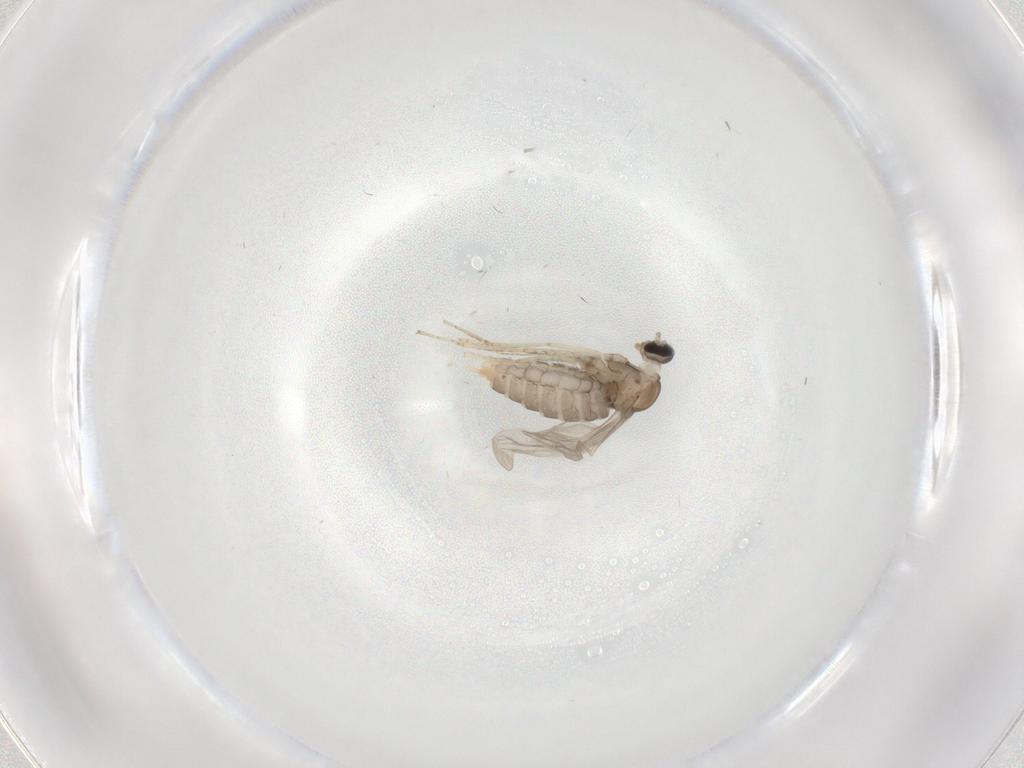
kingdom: Animalia
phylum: Arthropoda
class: Insecta
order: Diptera
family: Cecidomyiidae
